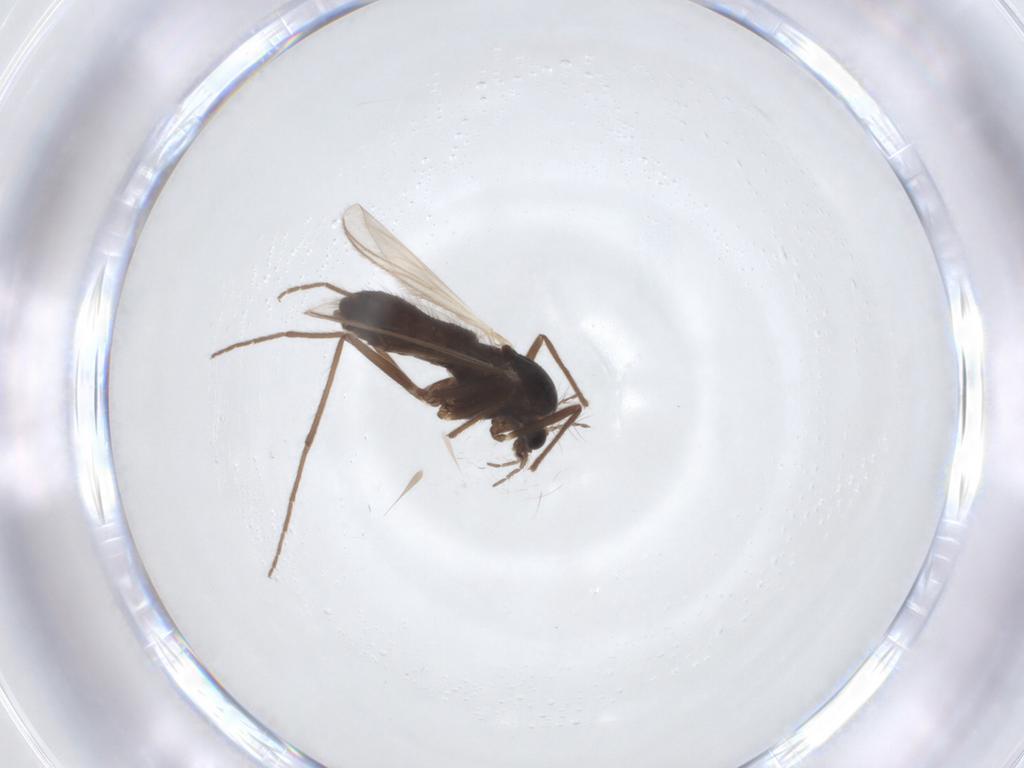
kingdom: Animalia
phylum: Arthropoda
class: Insecta
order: Diptera
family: Chironomidae
